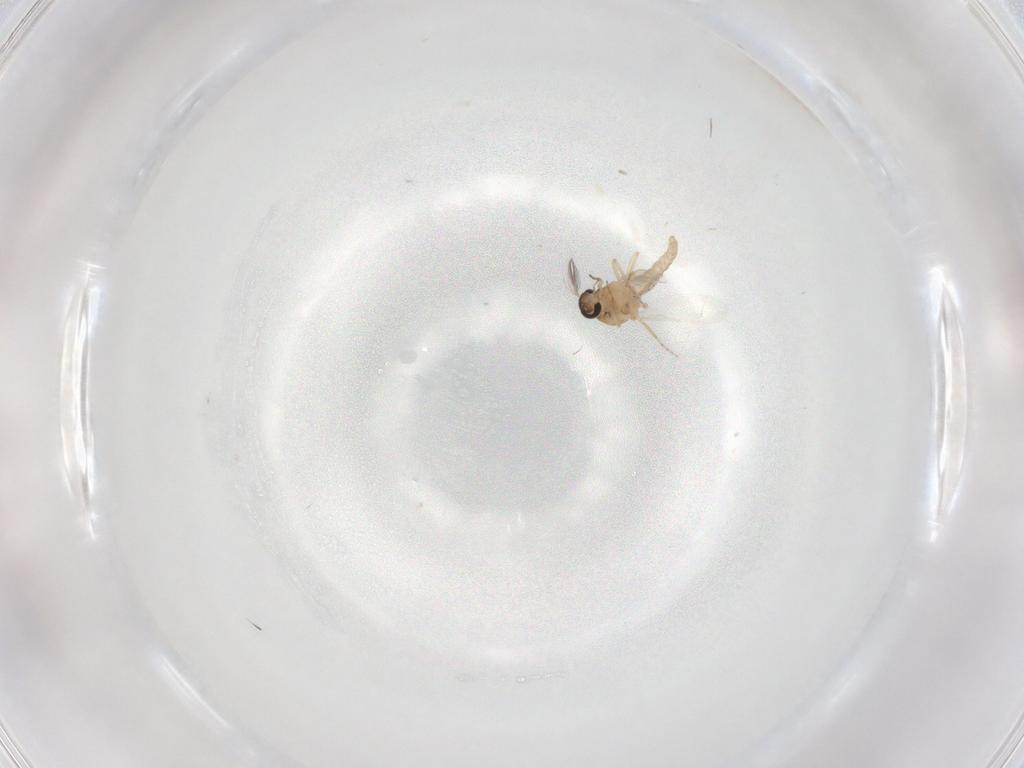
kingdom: Animalia
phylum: Arthropoda
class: Insecta
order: Diptera
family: Ceratopogonidae
